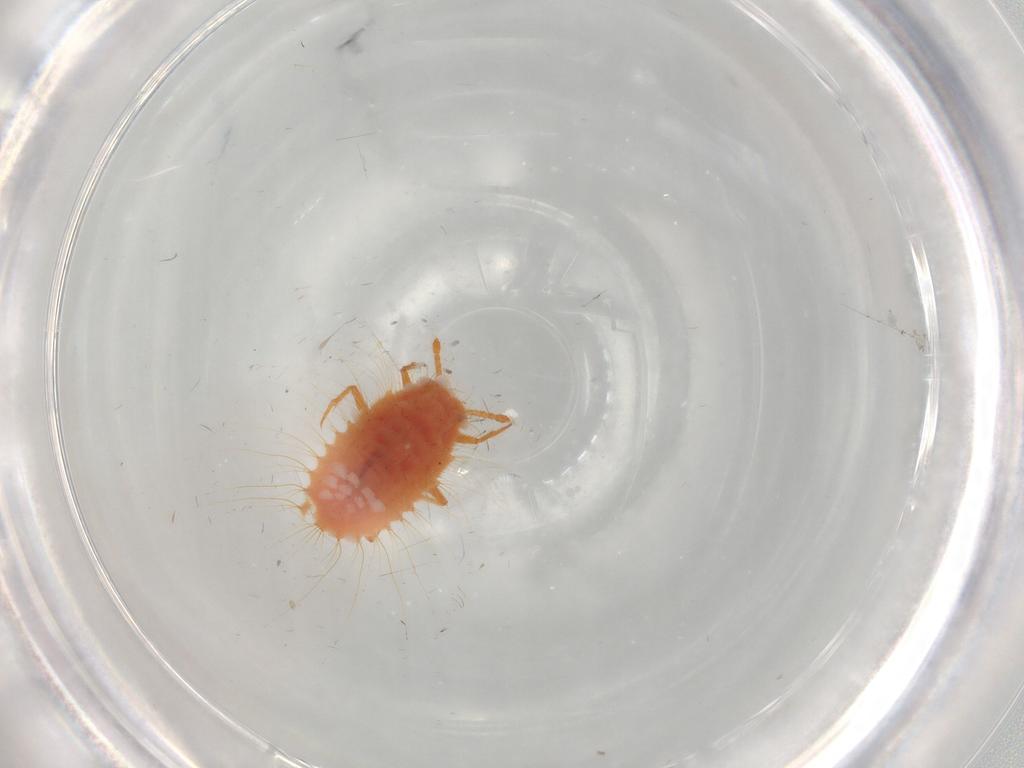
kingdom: Animalia
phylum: Arthropoda
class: Insecta
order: Hemiptera
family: Coccoidea_incertae_sedis
